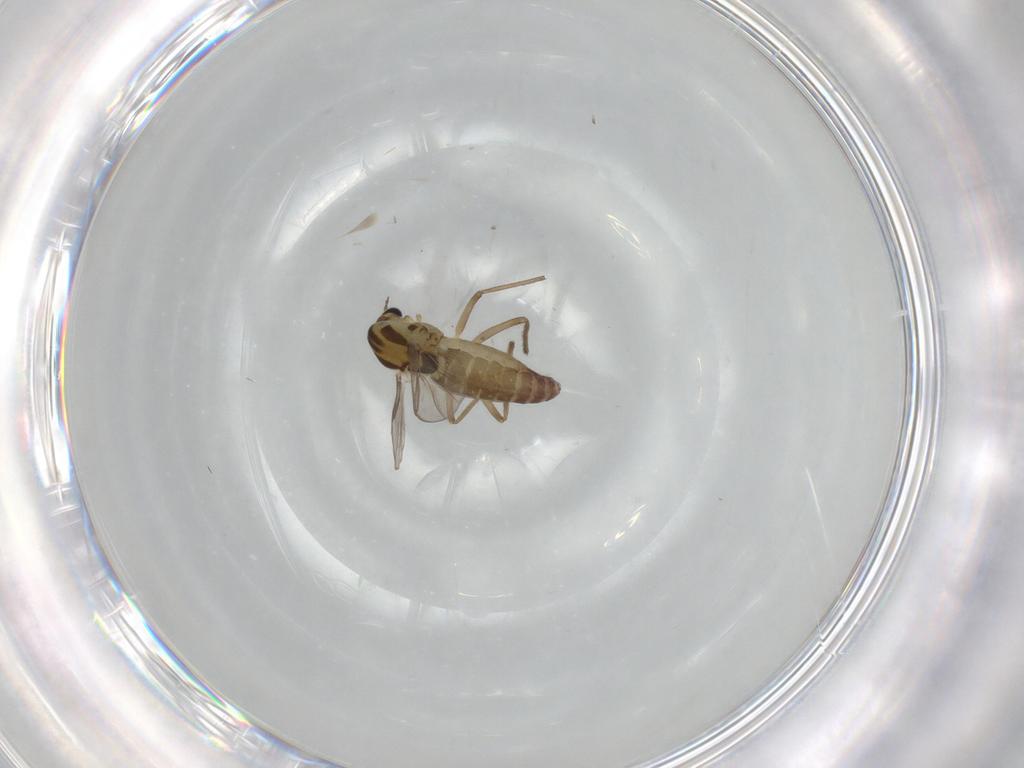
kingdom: Animalia
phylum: Arthropoda
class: Insecta
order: Diptera
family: Chironomidae
